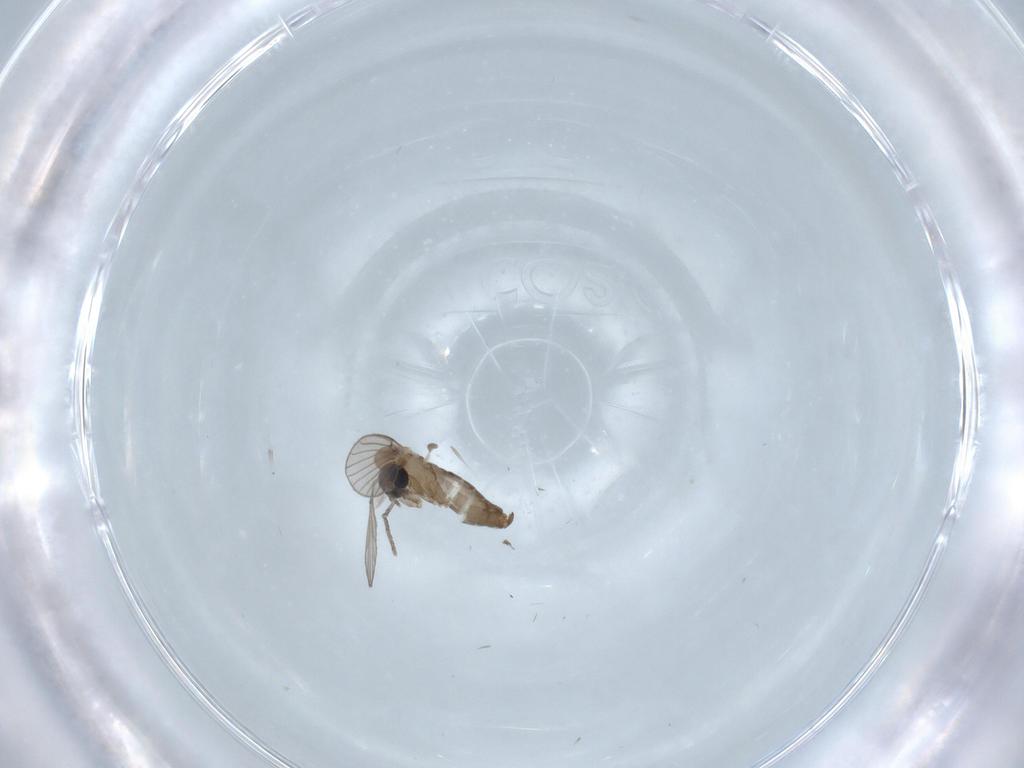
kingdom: Animalia
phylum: Arthropoda
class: Insecta
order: Diptera
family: Psychodidae
